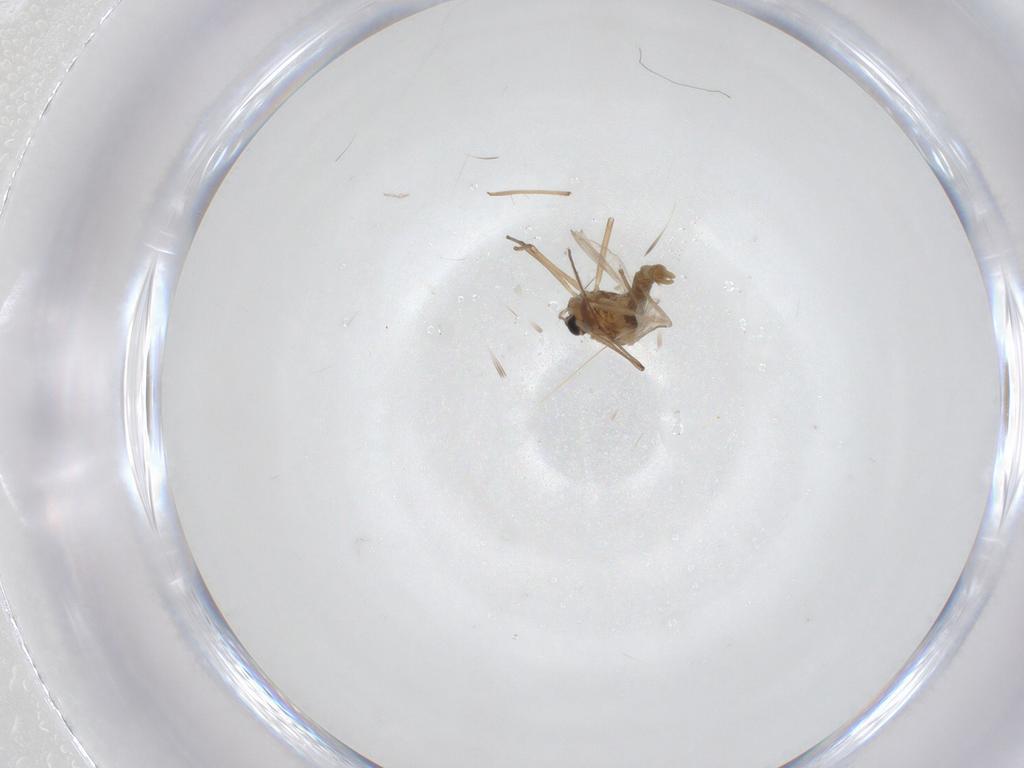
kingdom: Animalia
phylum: Arthropoda
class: Insecta
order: Diptera
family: Chironomidae
